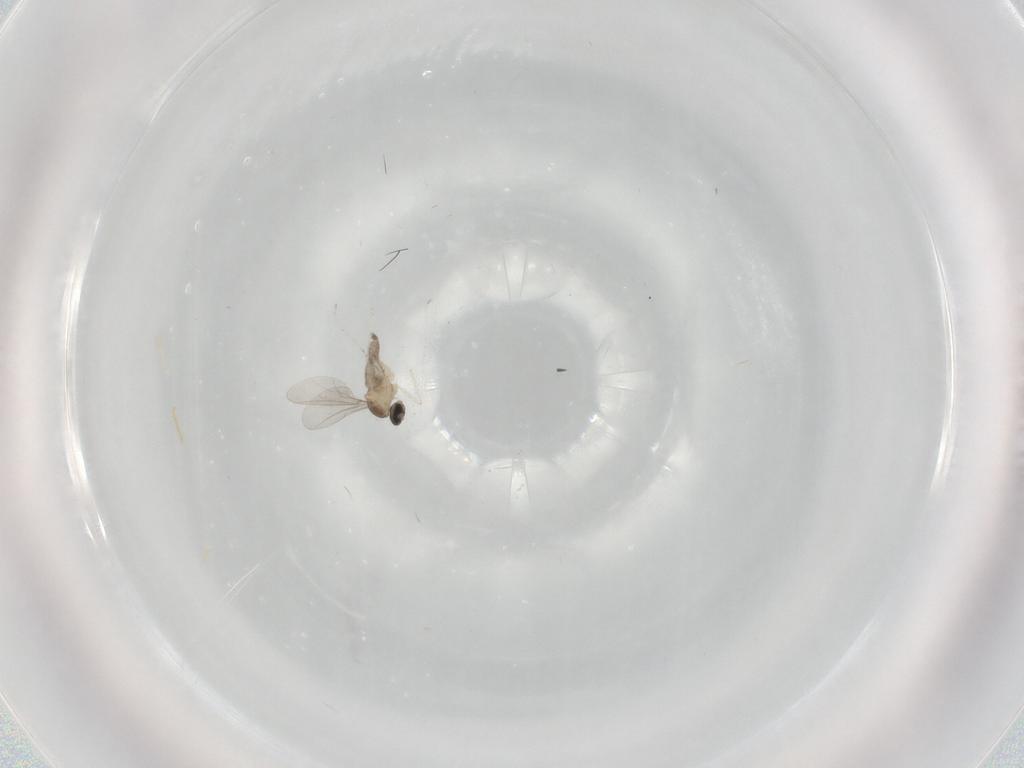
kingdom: Animalia
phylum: Arthropoda
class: Insecta
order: Diptera
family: Cecidomyiidae
